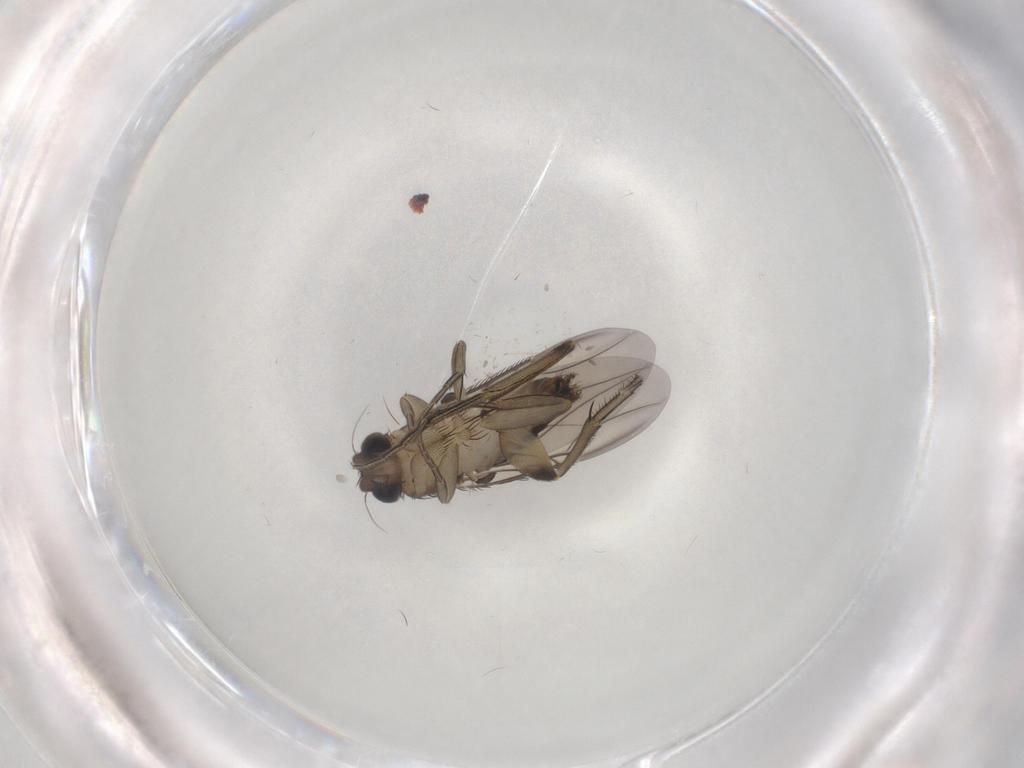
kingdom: Animalia
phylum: Arthropoda
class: Insecta
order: Diptera
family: Phoridae
